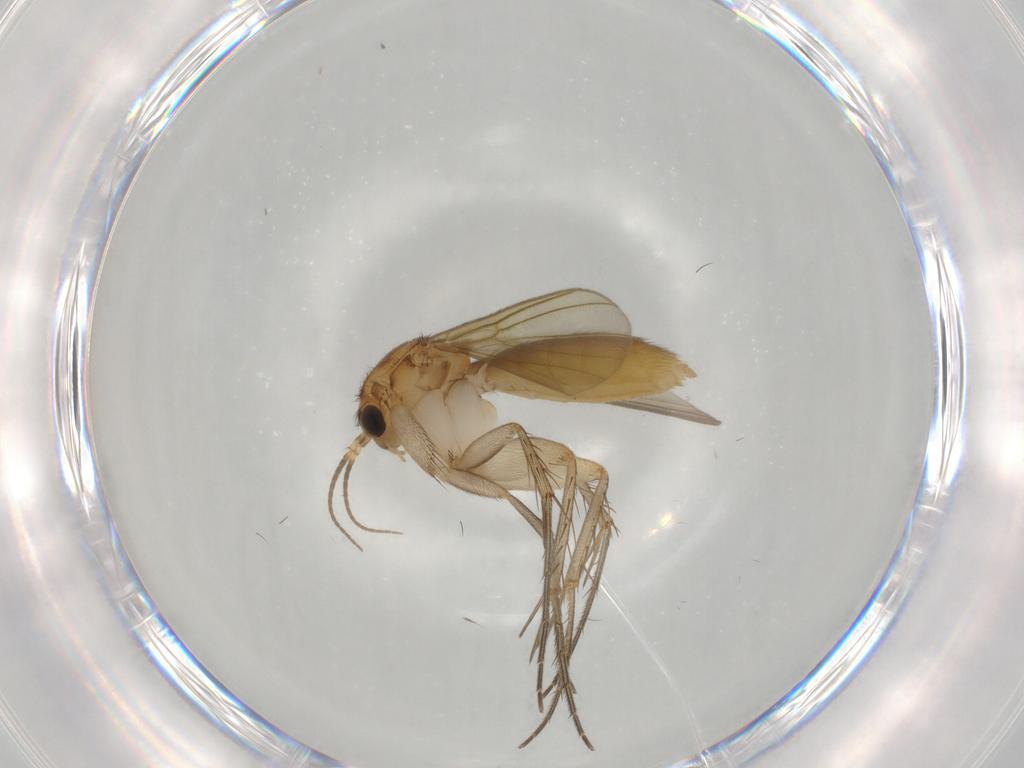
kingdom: Animalia
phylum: Arthropoda
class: Insecta
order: Diptera
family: Mycetophilidae
